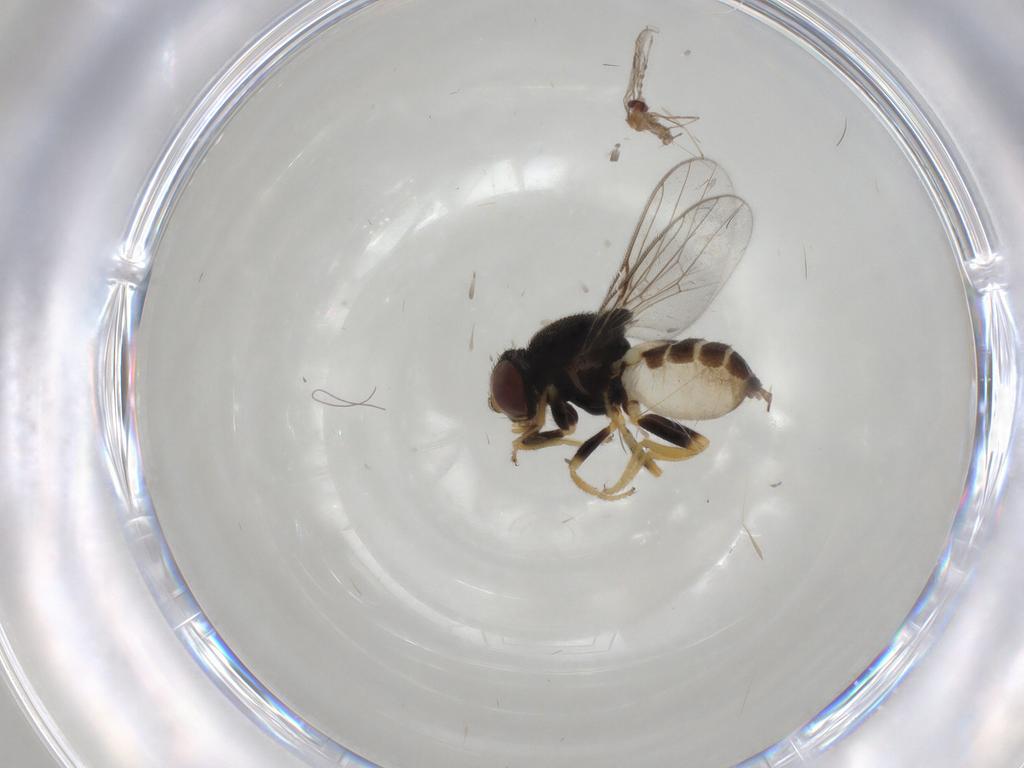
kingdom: Animalia
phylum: Arthropoda
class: Insecta
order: Diptera
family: Chloropidae
